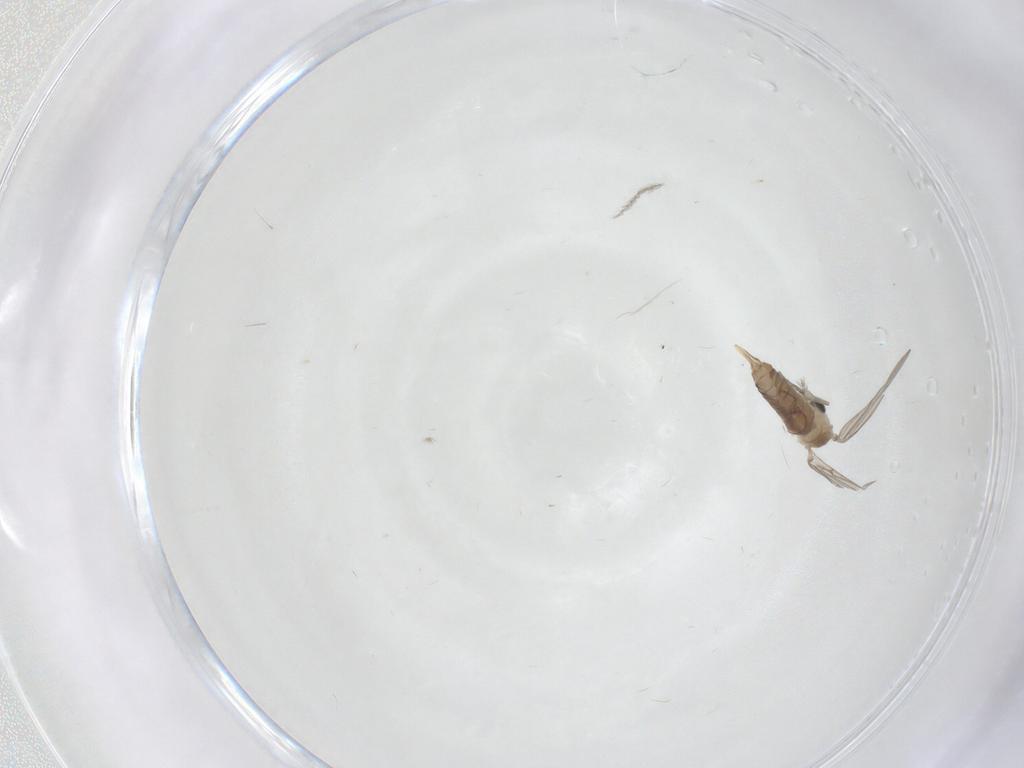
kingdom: Animalia
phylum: Arthropoda
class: Insecta
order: Diptera
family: Psychodidae
